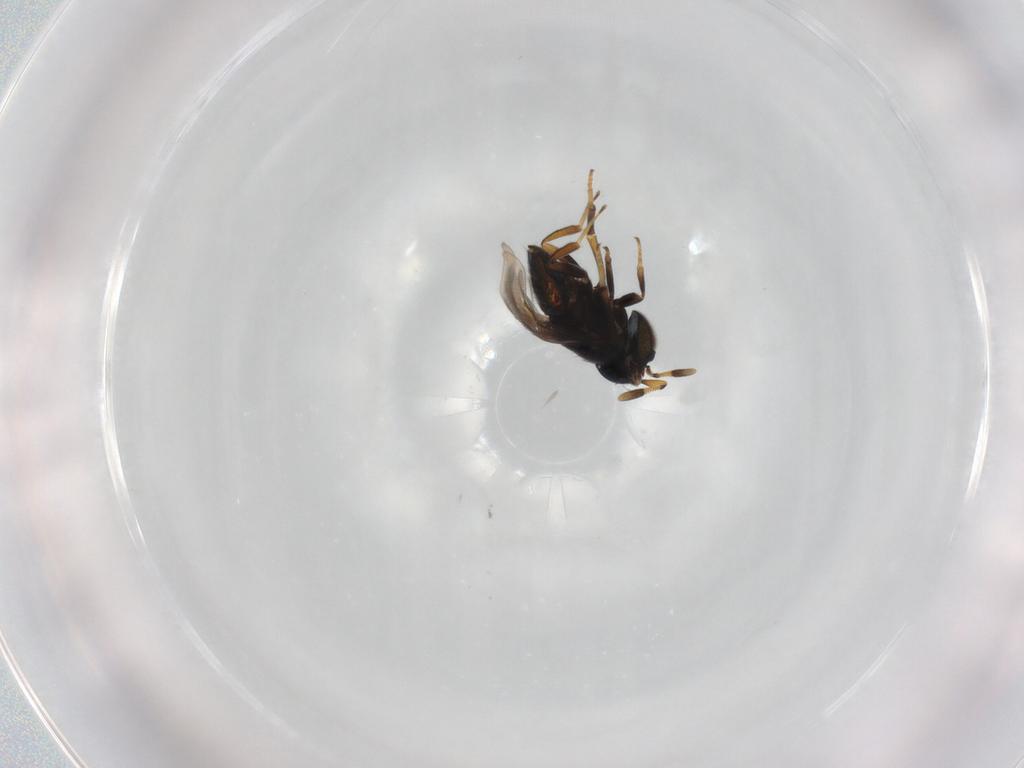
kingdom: Animalia
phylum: Arthropoda
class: Insecta
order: Hymenoptera
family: Encyrtidae
